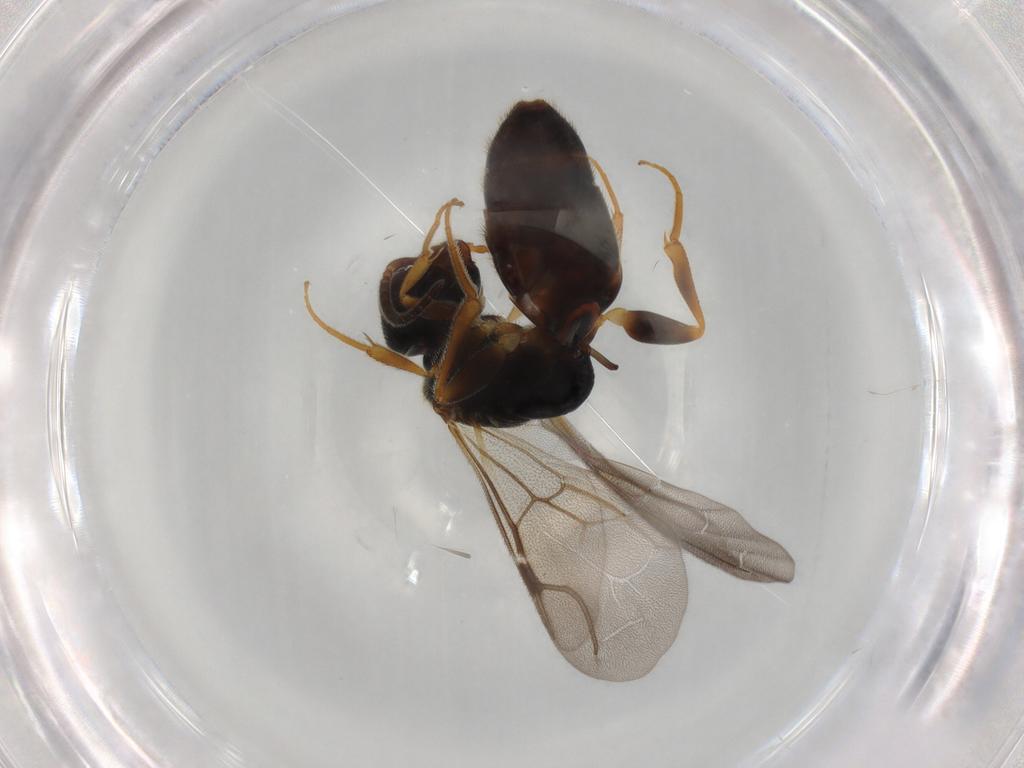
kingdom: Animalia
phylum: Arthropoda
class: Insecta
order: Hymenoptera
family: Bethylidae
